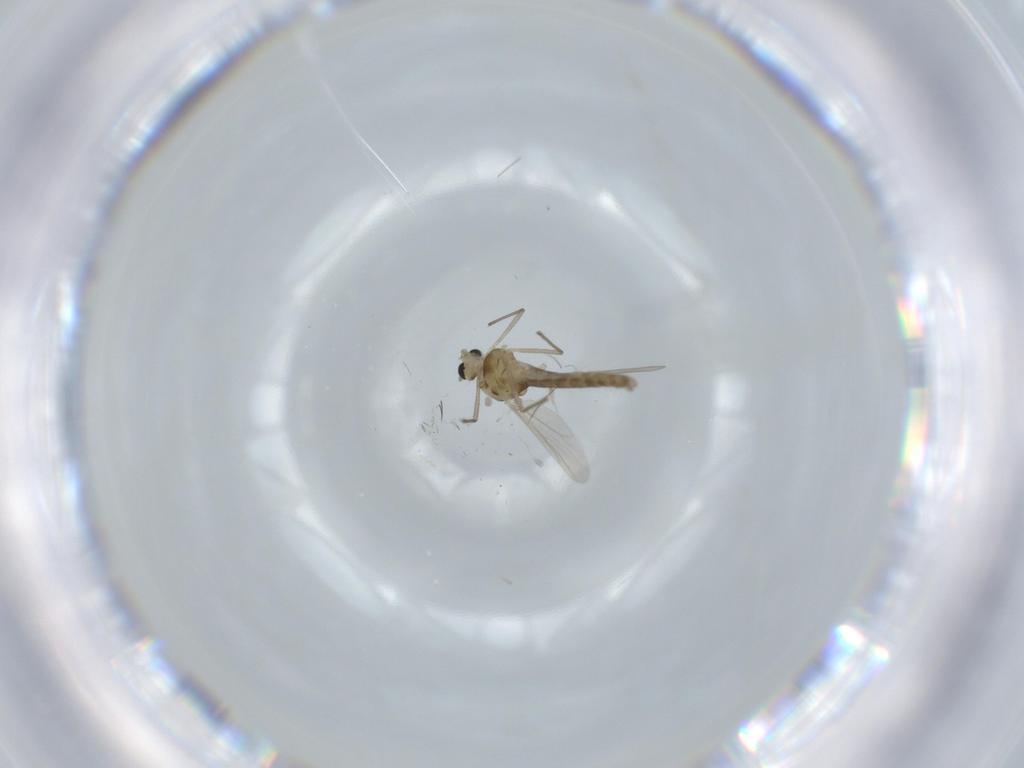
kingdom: Animalia
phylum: Arthropoda
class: Insecta
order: Diptera
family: Chironomidae
